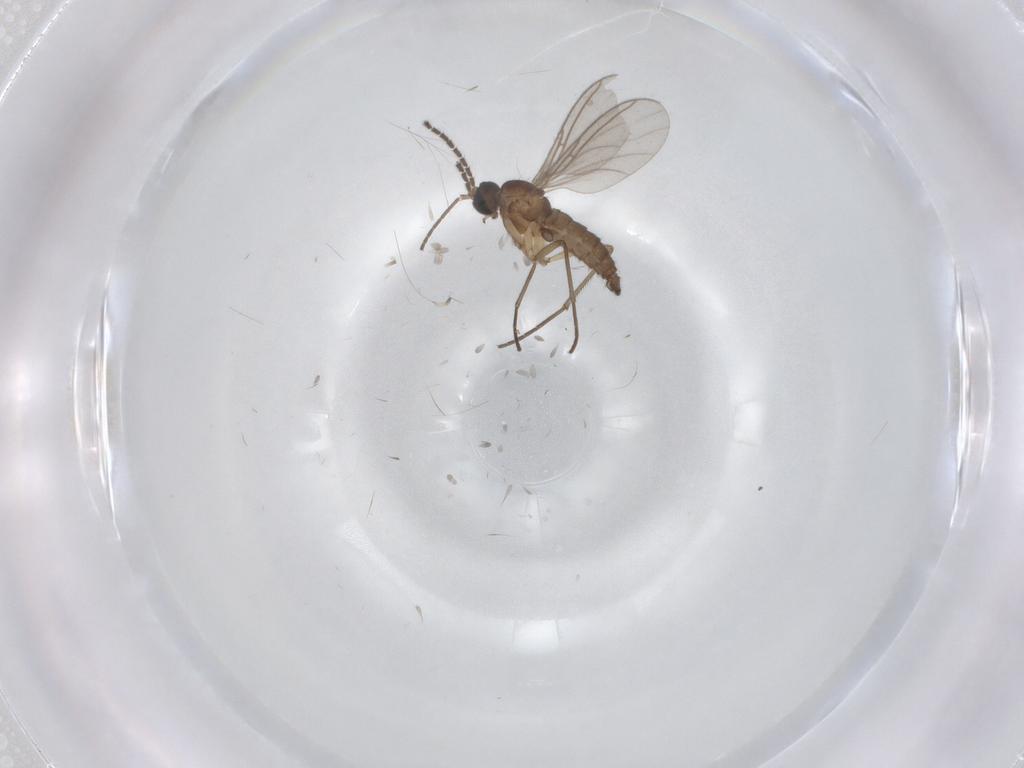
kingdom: Animalia
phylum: Arthropoda
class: Insecta
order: Diptera
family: Sciaridae
